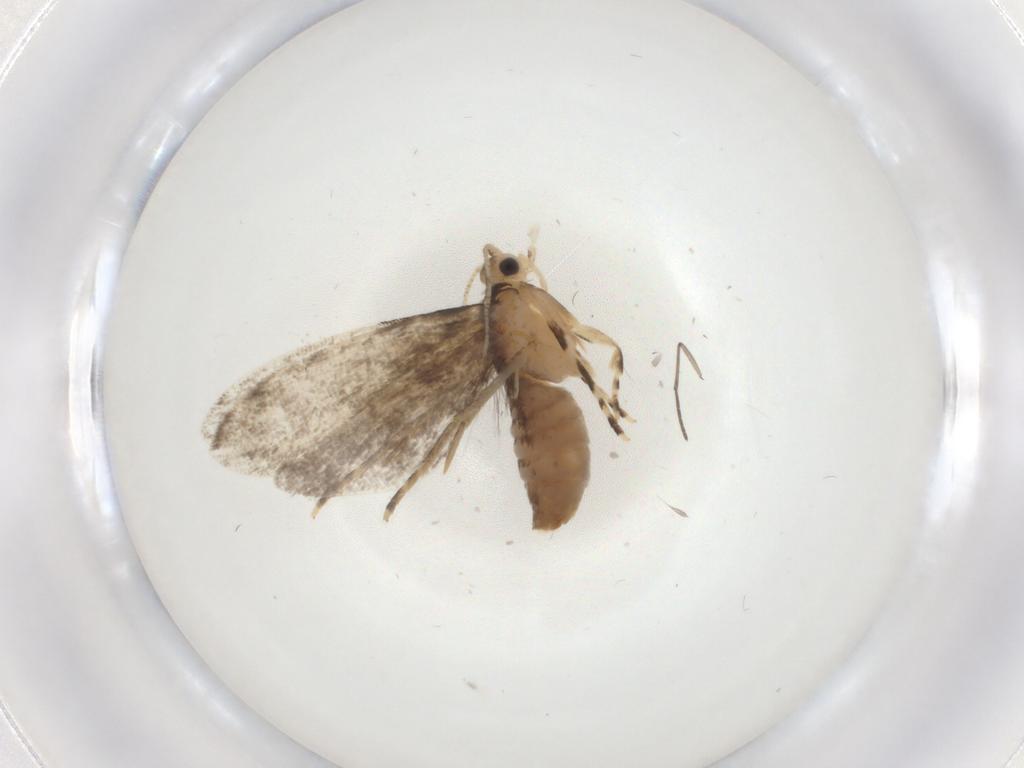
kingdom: Animalia
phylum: Arthropoda
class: Insecta
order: Lepidoptera
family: Tineidae
